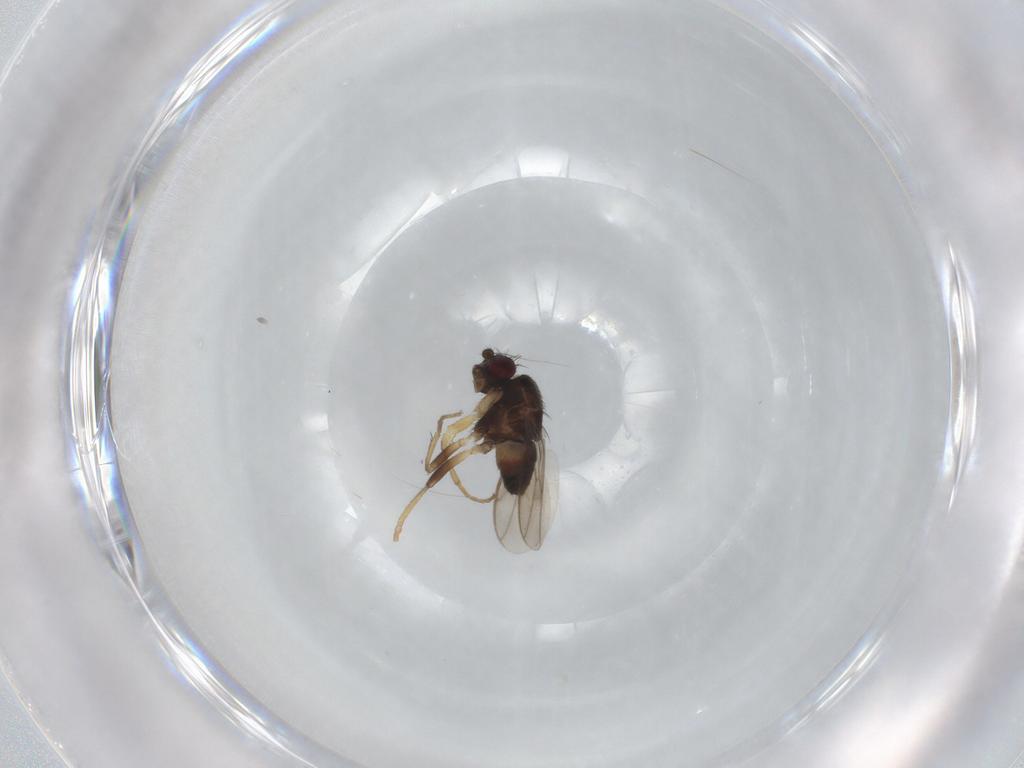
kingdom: Animalia
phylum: Arthropoda
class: Insecta
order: Diptera
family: Sphaeroceridae
